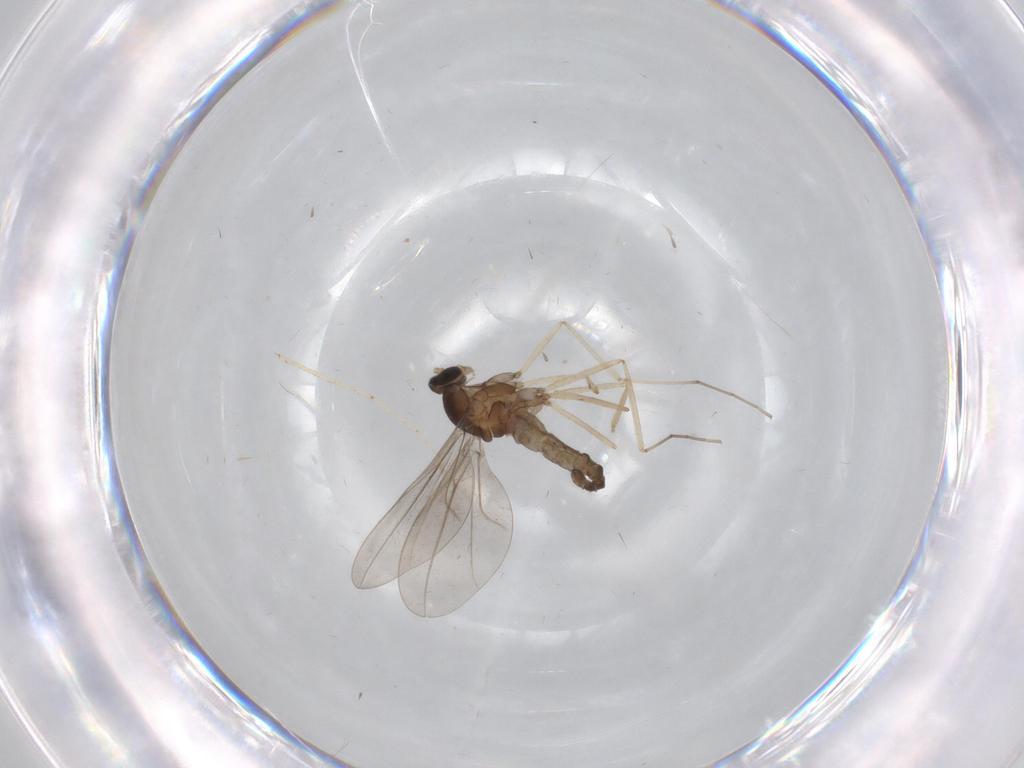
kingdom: Animalia
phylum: Arthropoda
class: Insecta
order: Diptera
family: Cecidomyiidae
